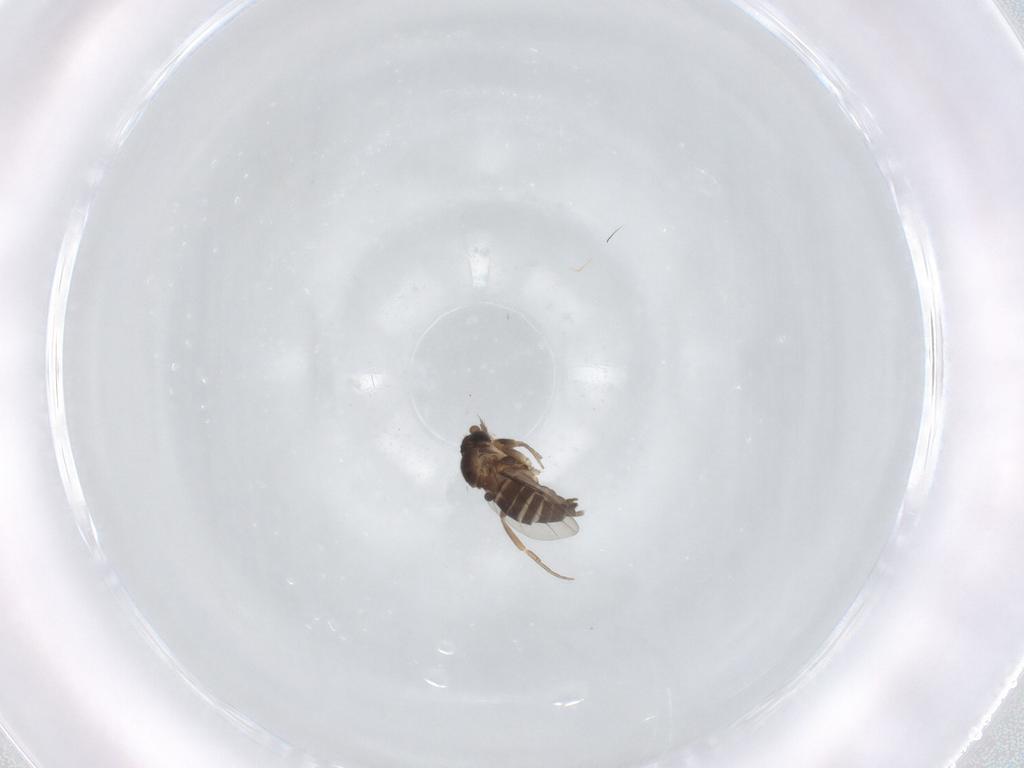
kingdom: Animalia
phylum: Arthropoda
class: Insecta
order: Diptera
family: Phoridae
